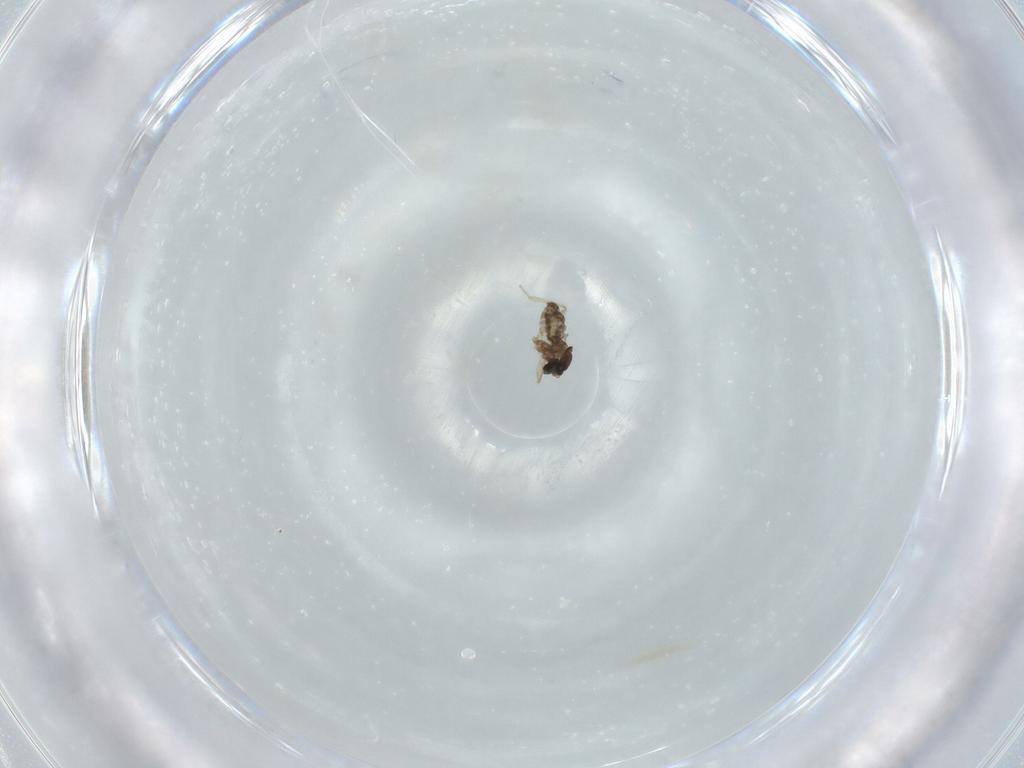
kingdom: Animalia
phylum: Arthropoda
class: Insecta
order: Diptera
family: Cecidomyiidae
